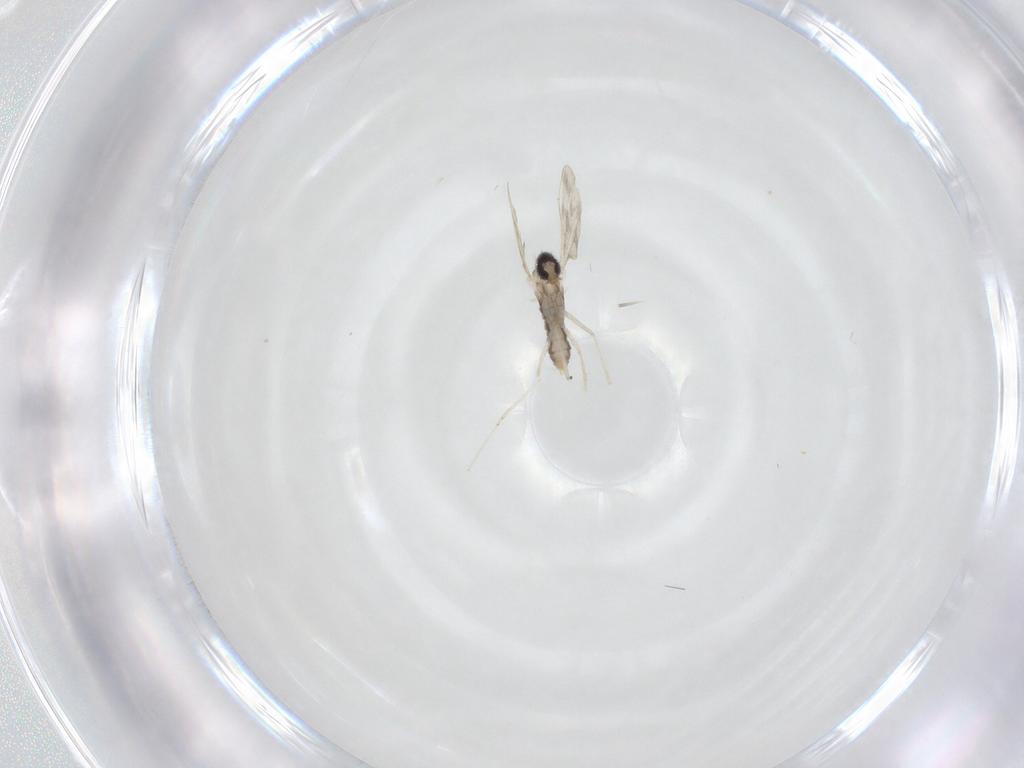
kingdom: Animalia
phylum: Arthropoda
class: Insecta
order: Diptera
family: Cecidomyiidae
